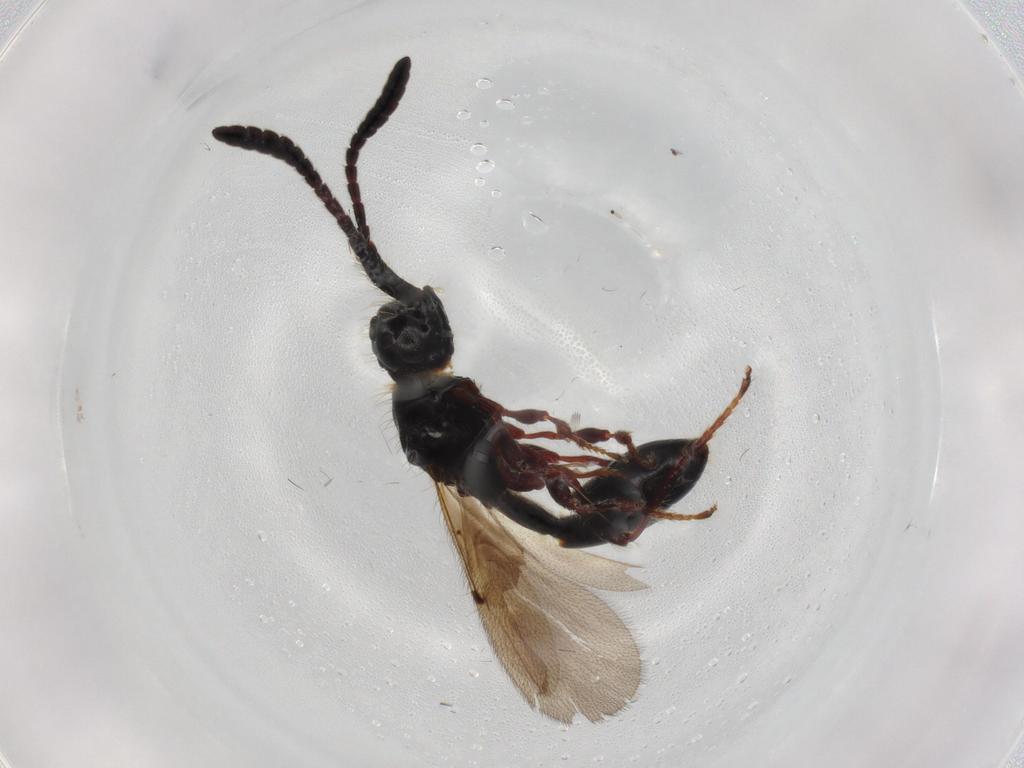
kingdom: Animalia
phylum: Arthropoda
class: Insecta
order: Hymenoptera
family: Diapriidae
